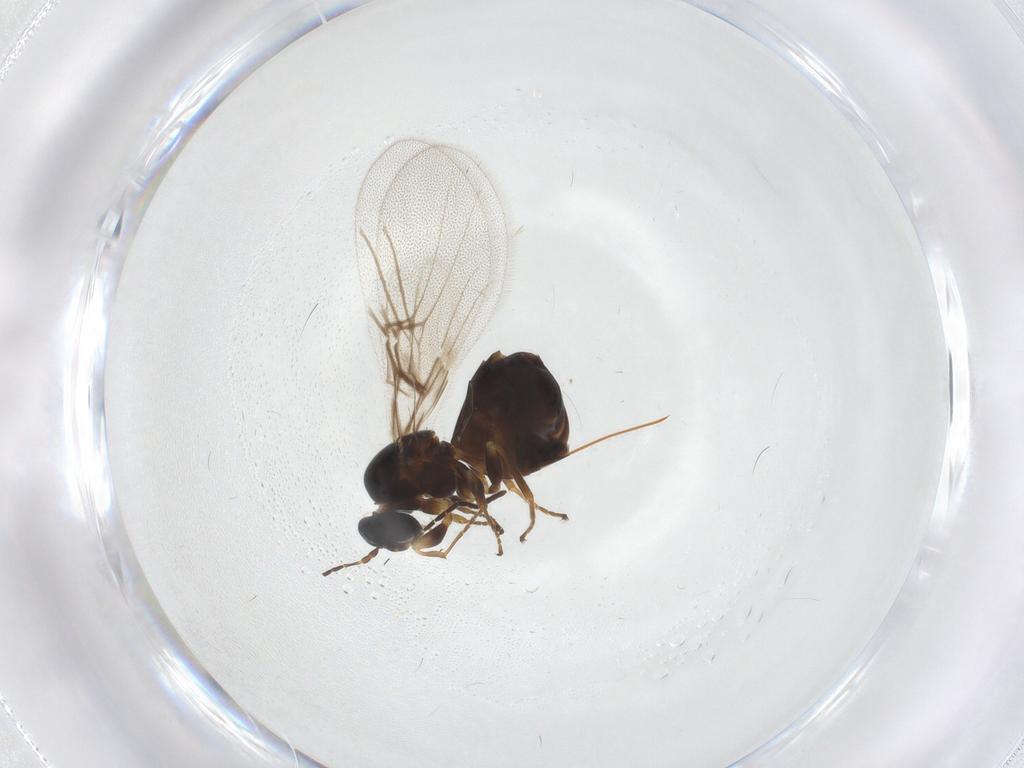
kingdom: Animalia
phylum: Arthropoda
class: Insecta
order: Hymenoptera
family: Cynipidae
